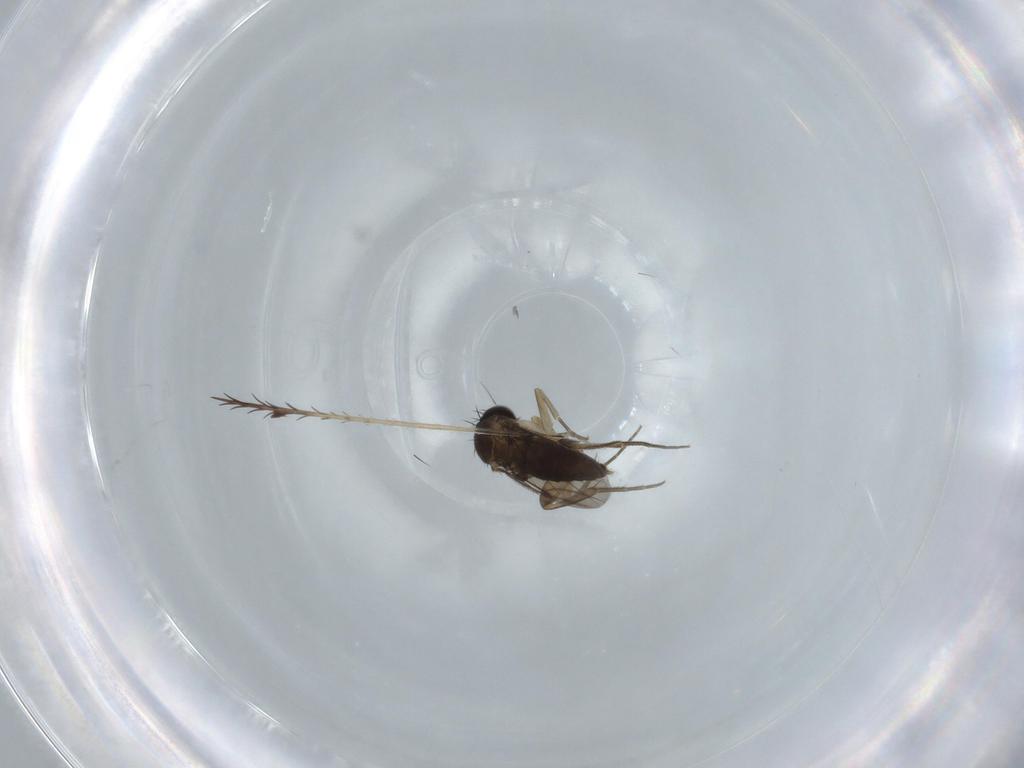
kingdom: Animalia
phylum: Arthropoda
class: Insecta
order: Diptera
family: Phoridae
